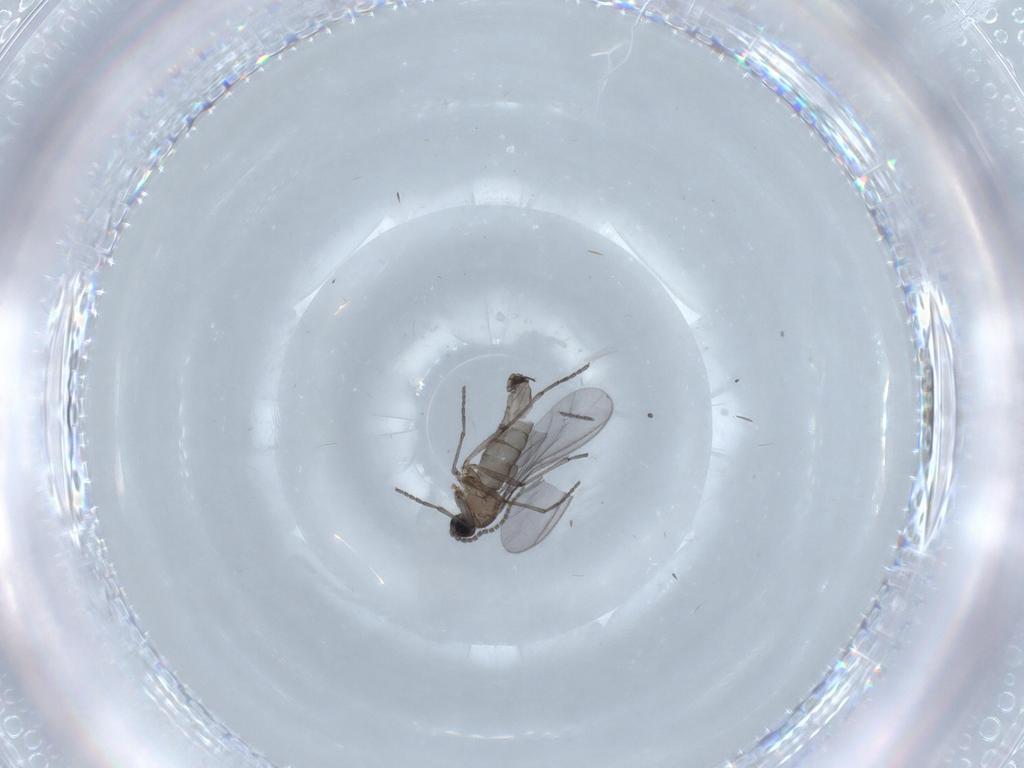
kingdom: Animalia
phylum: Arthropoda
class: Insecta
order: Diptera
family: Sciaridae
